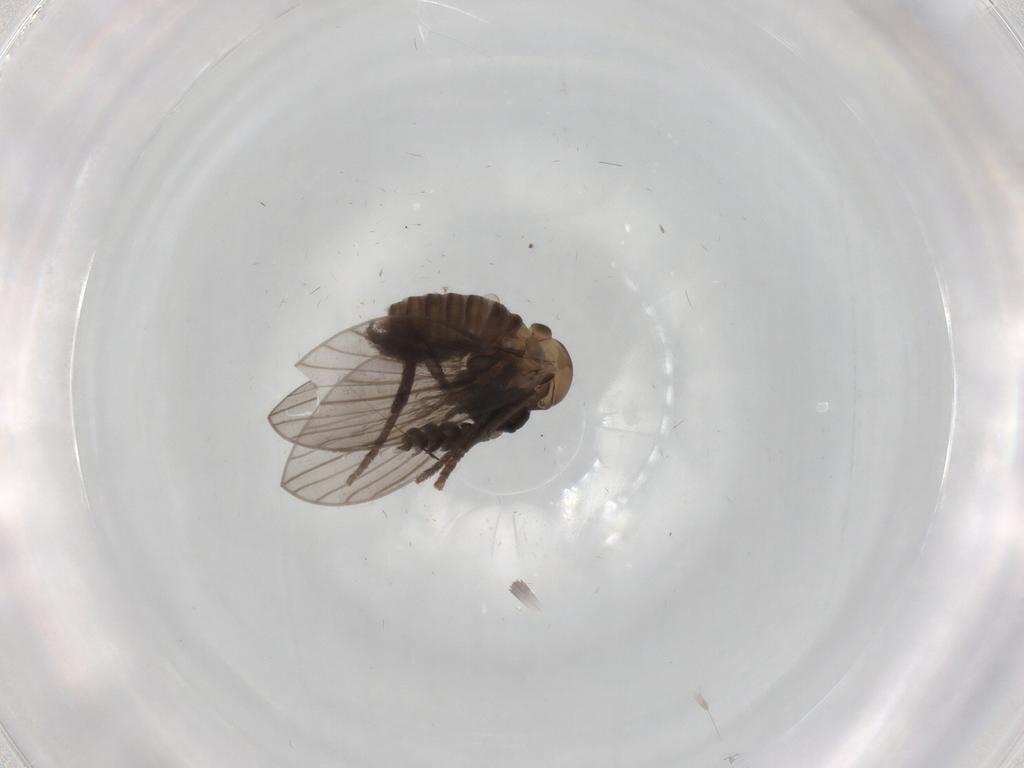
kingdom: Animalia
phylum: Arthropoda
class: Insecta
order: Diptera
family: Psychodidae
